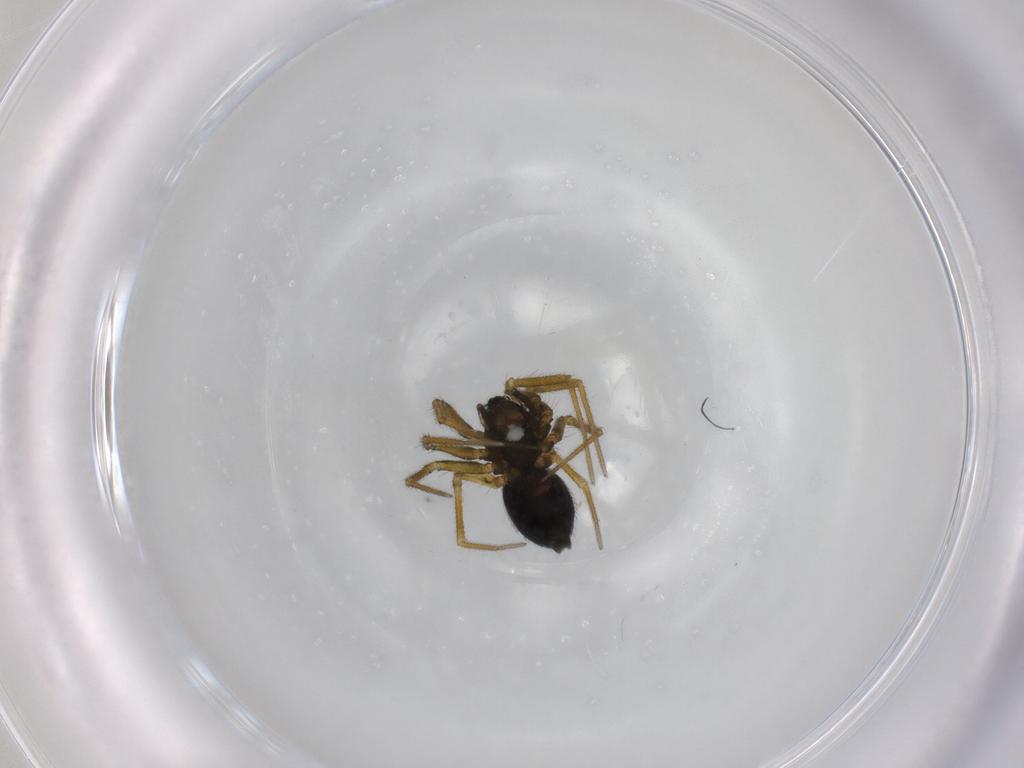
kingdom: Animalia
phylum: Arthropoda
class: Arachnida
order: Araneae
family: Linyphiidae
